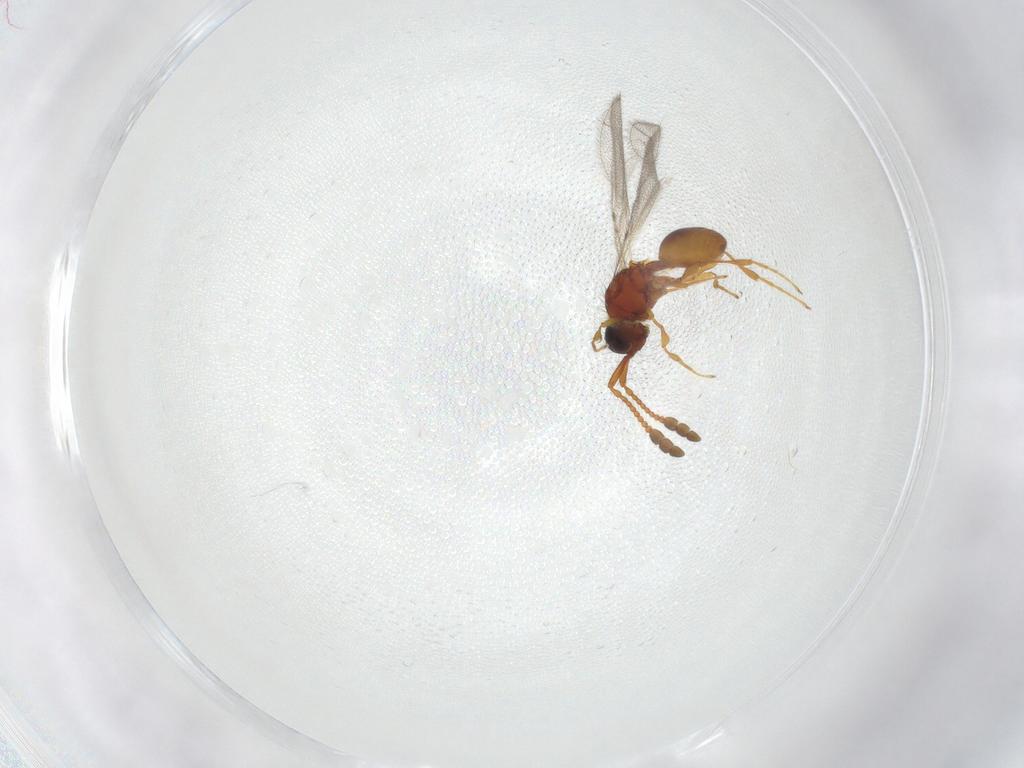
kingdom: Animalia
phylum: Arthropoda
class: Insecta
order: Hymenoptera
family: Diapriidae
